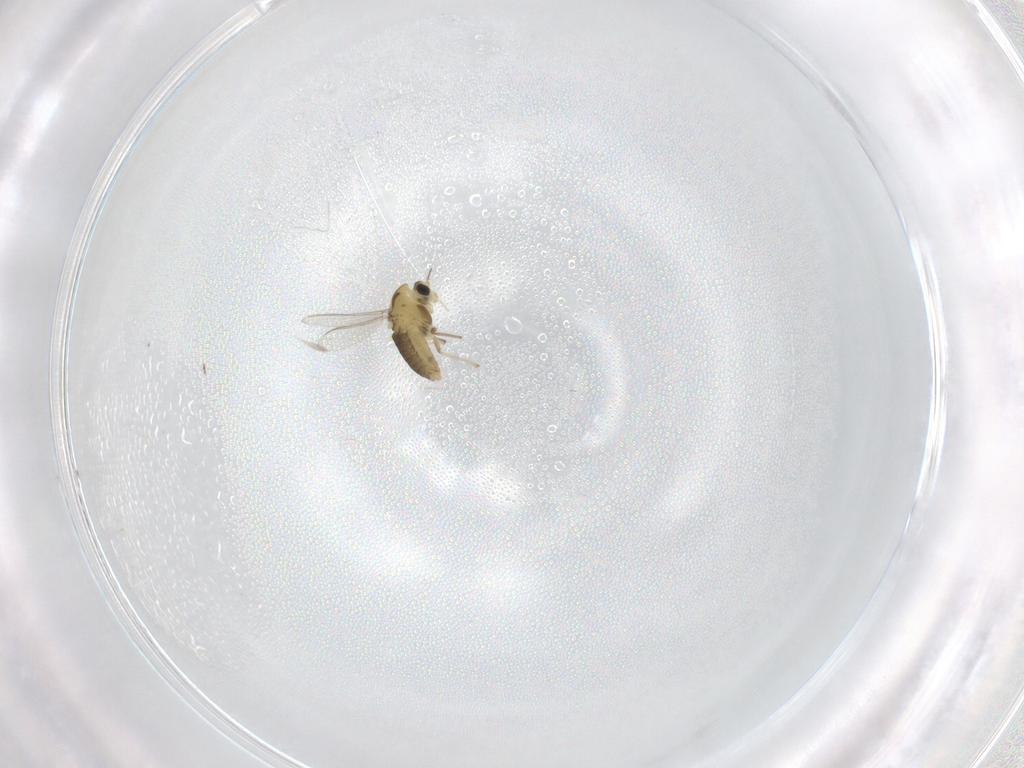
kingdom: Animalia
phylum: Arthropoda
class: Insecta
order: Diptera
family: Chironomidae
